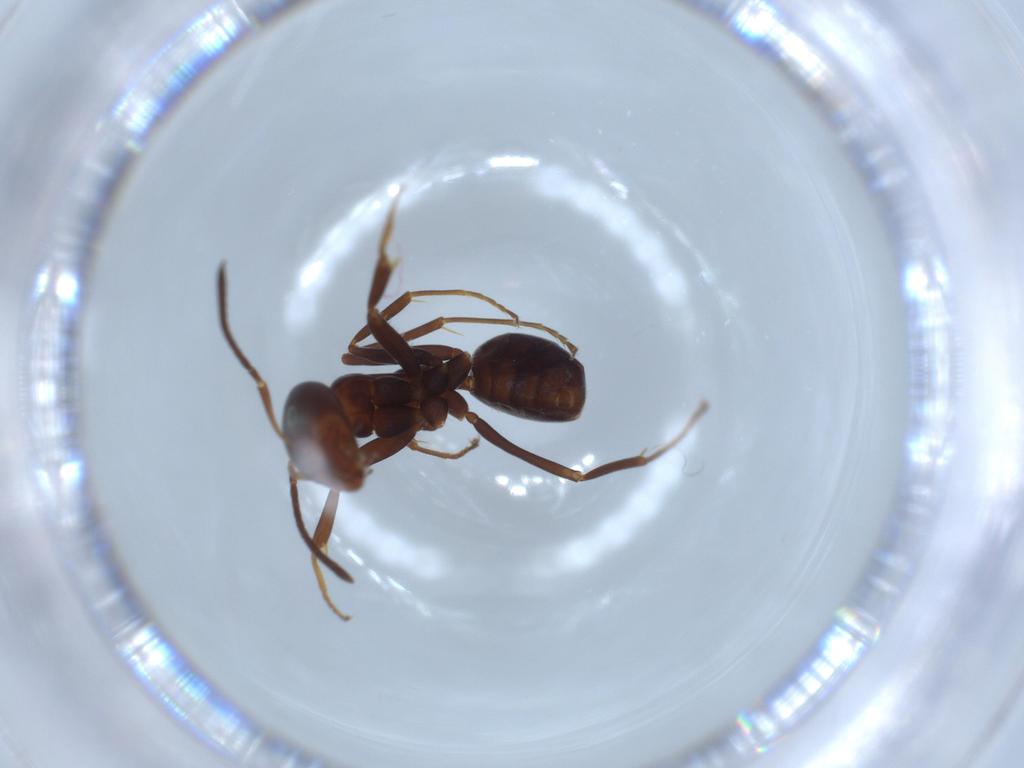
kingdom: Animalia
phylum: Arthropoda
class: Insecta
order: Hymenoptera
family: Formicidae
